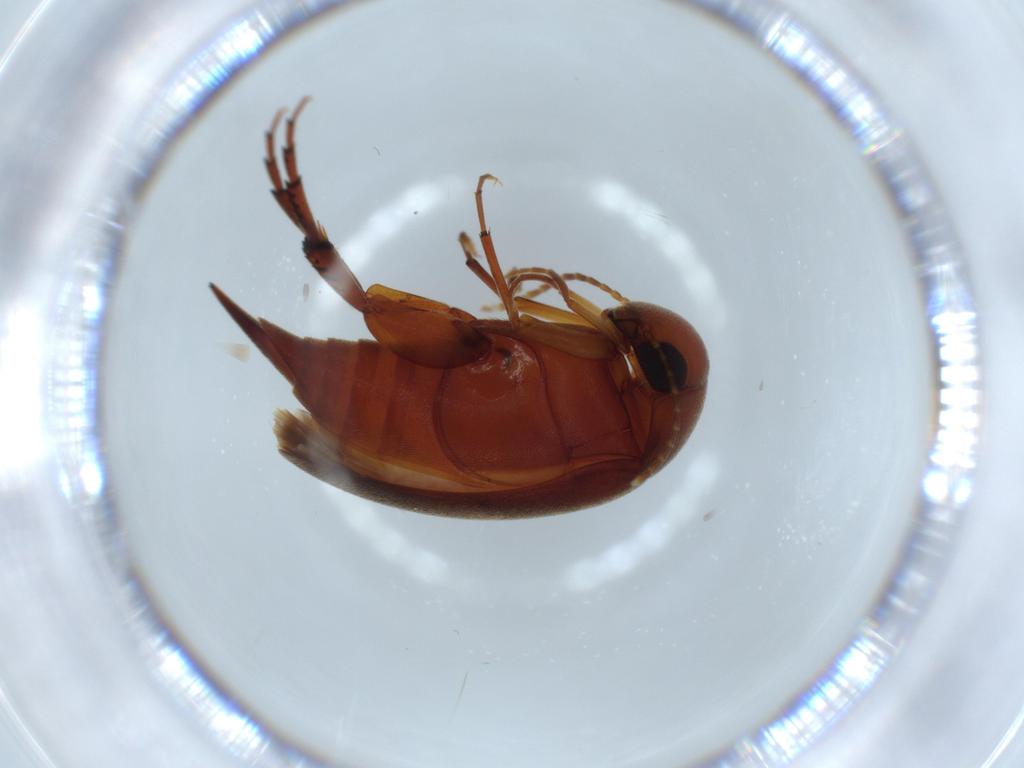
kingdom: Animalia
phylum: Arthropoda
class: Insecta
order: Coleoptera
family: Mordellidae
